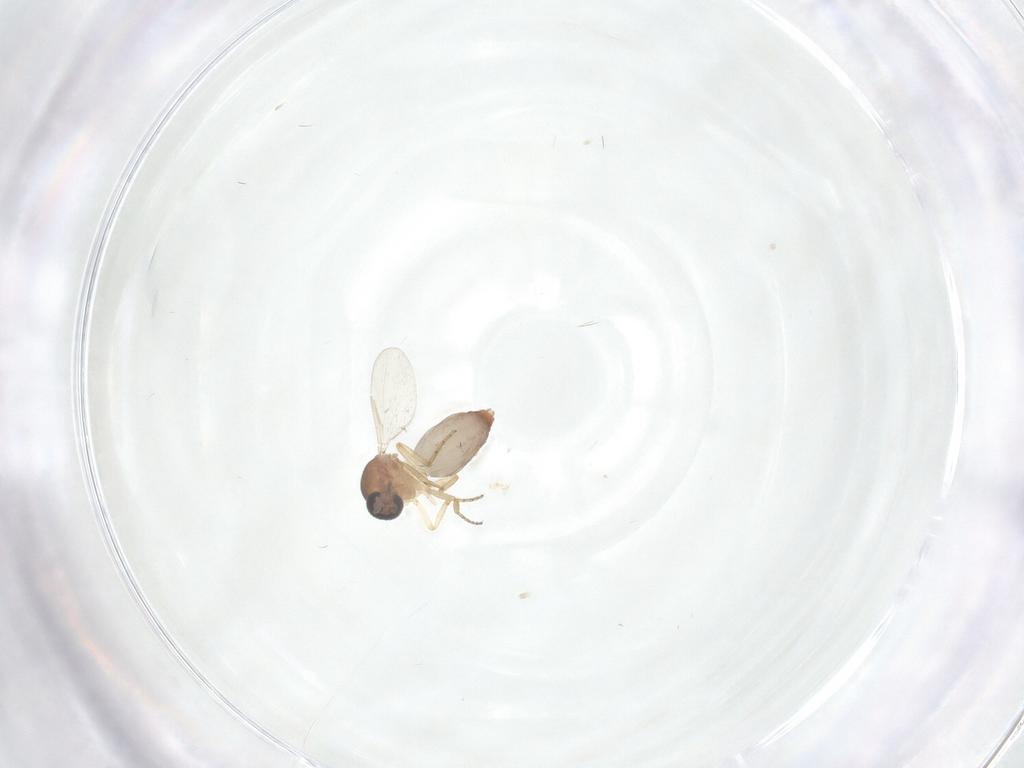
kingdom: Animalia
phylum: Arthropoda
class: Insecta
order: Diptera
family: Ceratopogonidae
